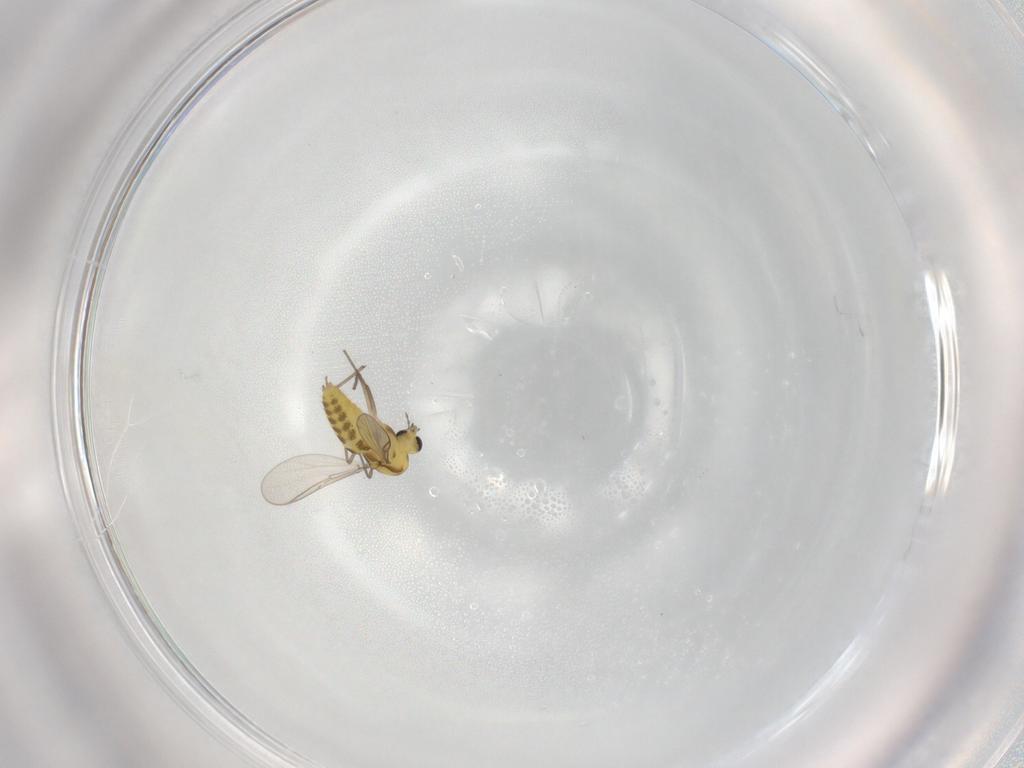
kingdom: Animalia
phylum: Arthropoda
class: Insecta
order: Diptera
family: Chironomidae
